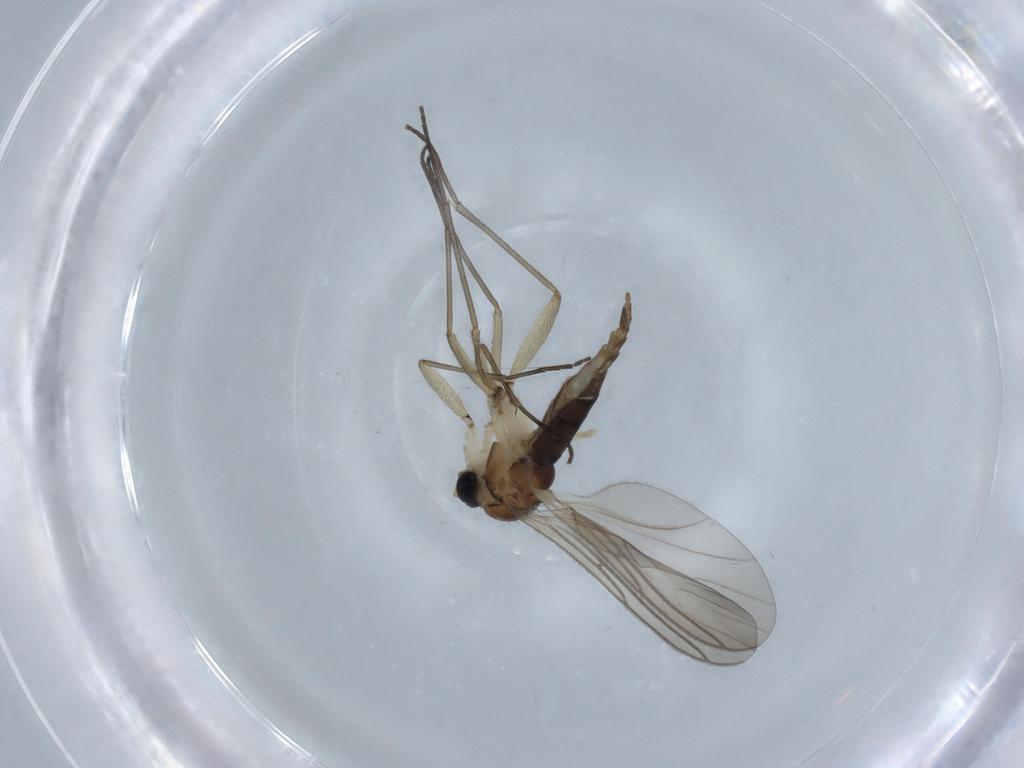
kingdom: Animalia
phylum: Arthropoda
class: Insecta
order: Diptera
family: Sciaridae
